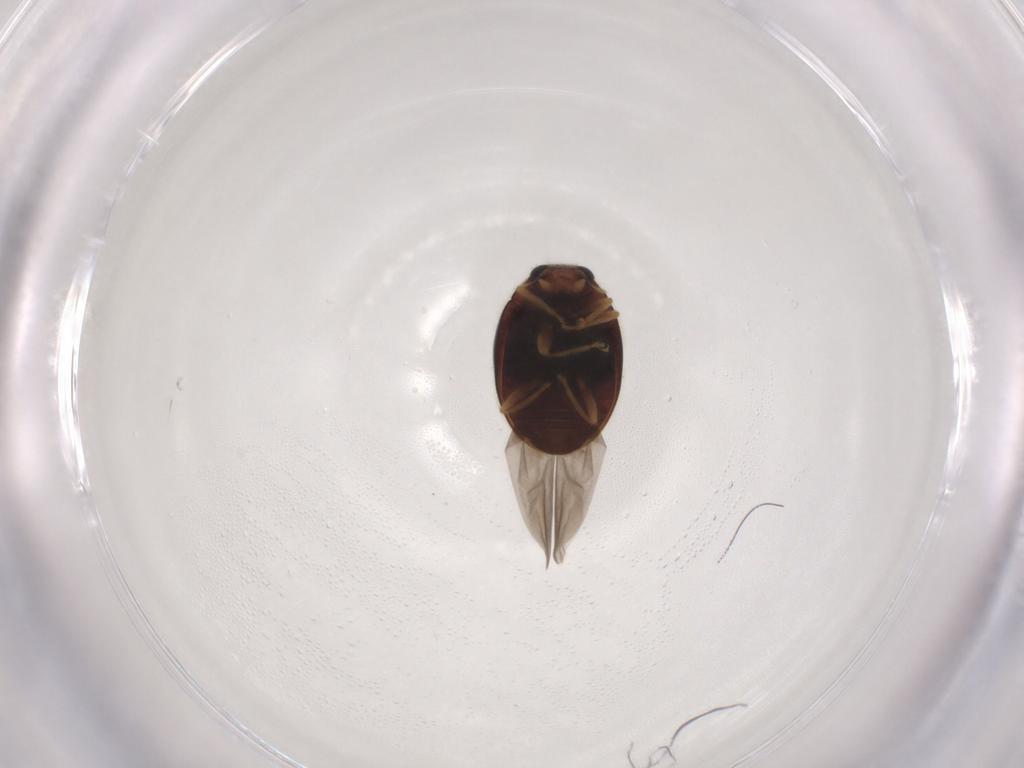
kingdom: Animalia
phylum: Arthropoda
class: Insecta
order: Coleoptera
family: Coccinellidae
